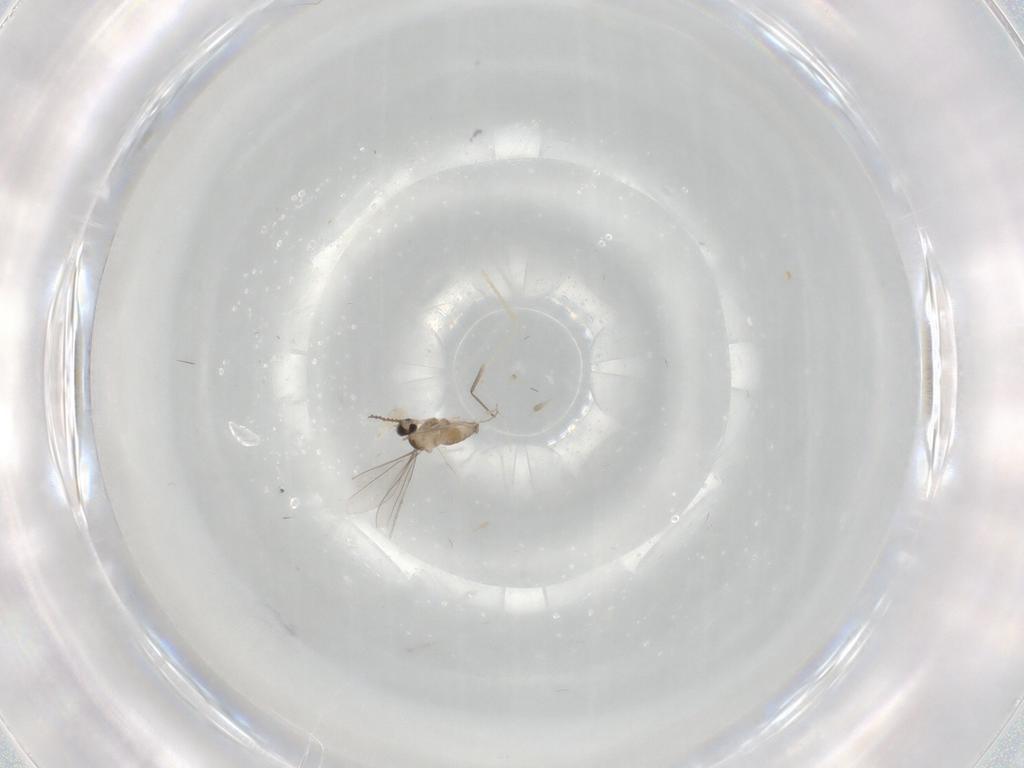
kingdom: Animalia
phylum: Arthropoda
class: Insecta
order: Diptera
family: Cecidomyiidae
